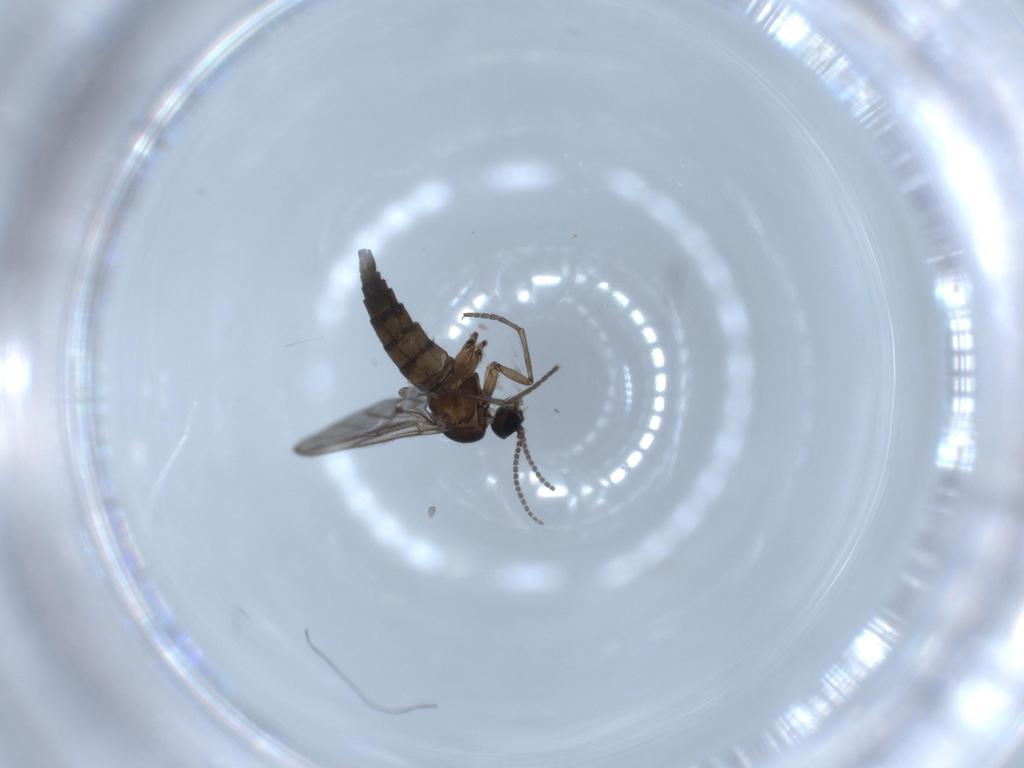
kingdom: Animalia
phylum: Arthropoda
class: Insecta
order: Diptera
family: Sciaridae
